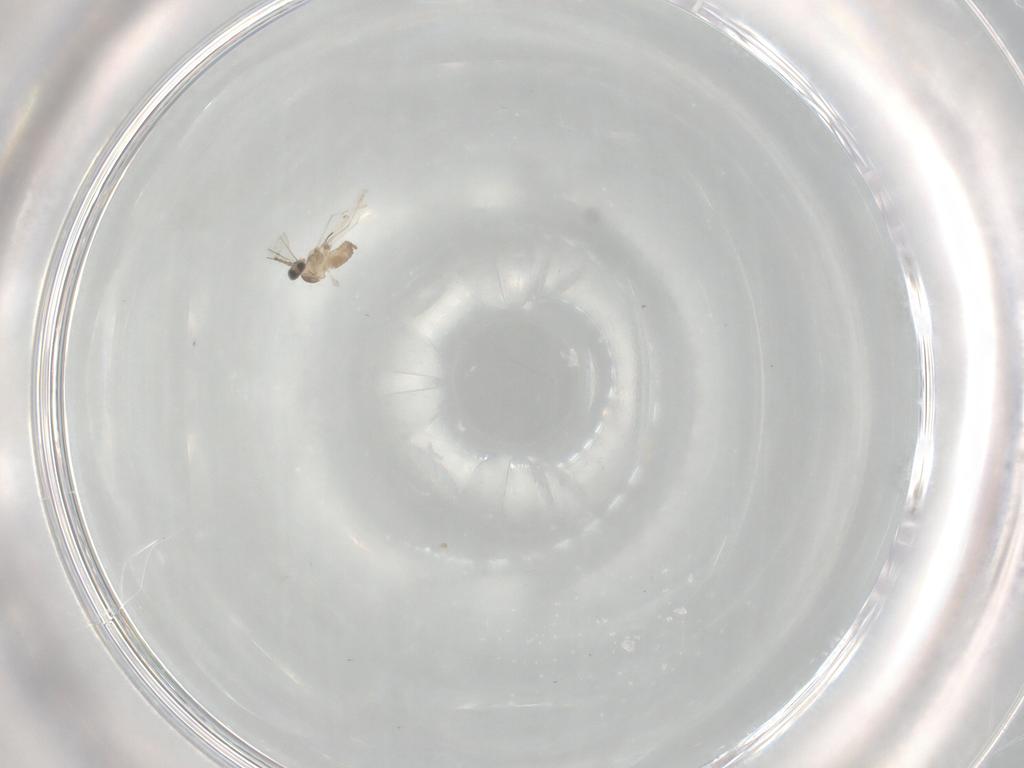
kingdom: Animalia
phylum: Arthropoda
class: Insecta
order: Diptera
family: Cecidomyiidae
